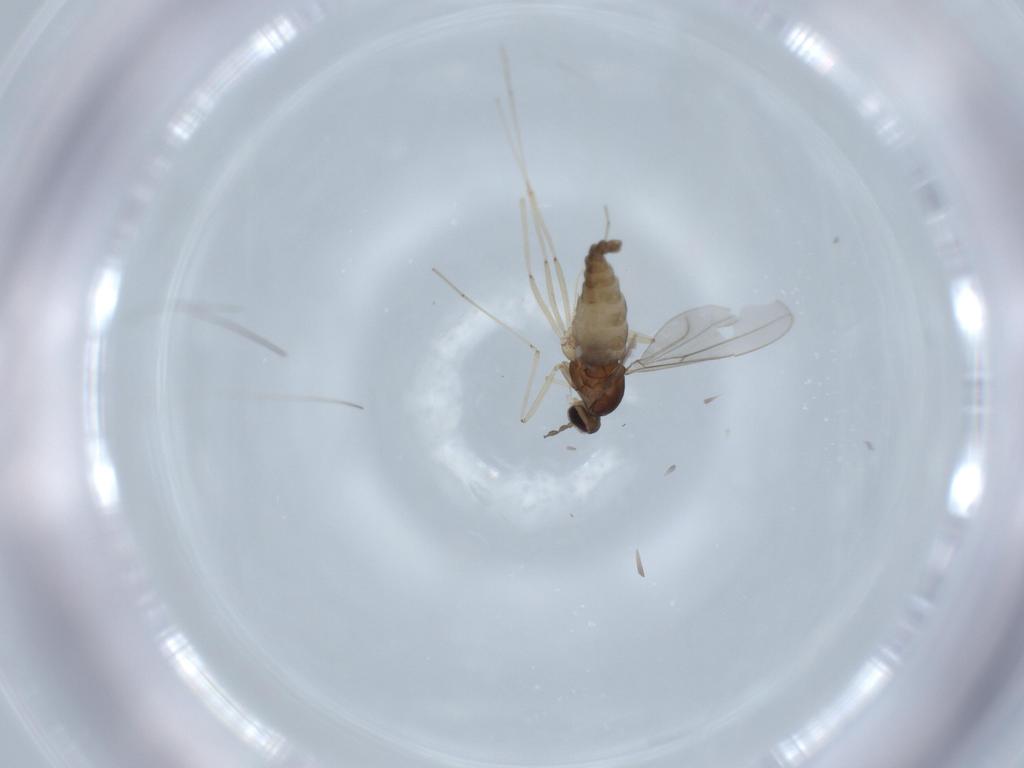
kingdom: Animalia
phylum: Arthropoda
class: Insecta
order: Diptera
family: Cecidomyiidae
